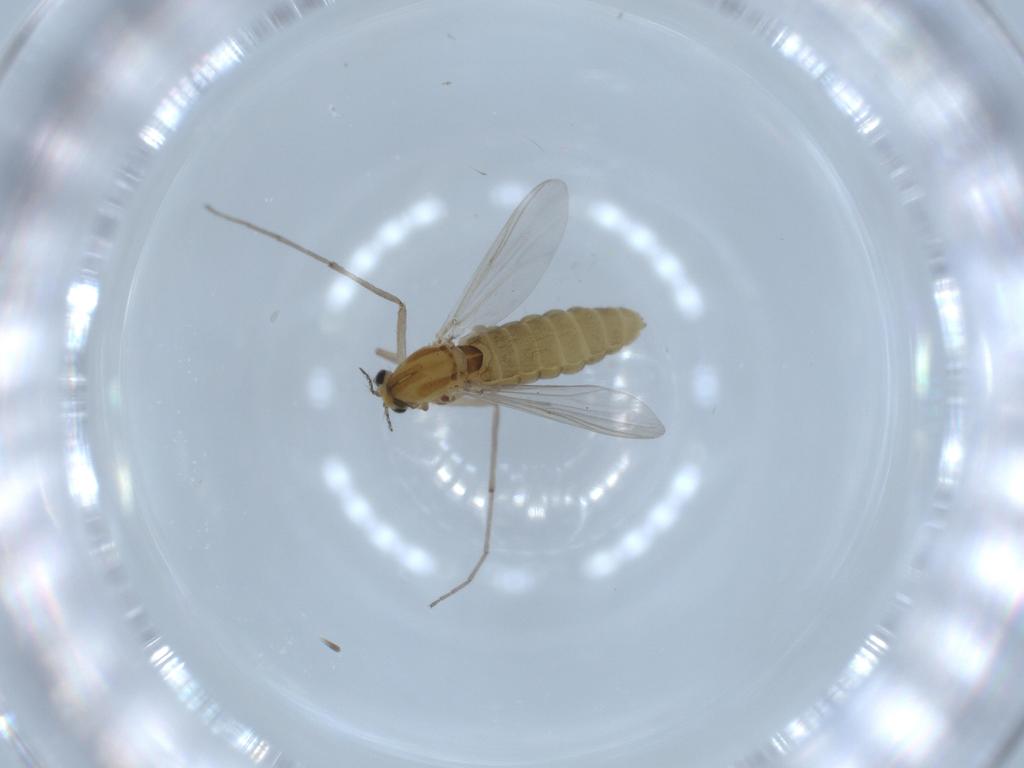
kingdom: Animalia
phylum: Arthropoda
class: Insecta
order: Diptera
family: Chironomidae
